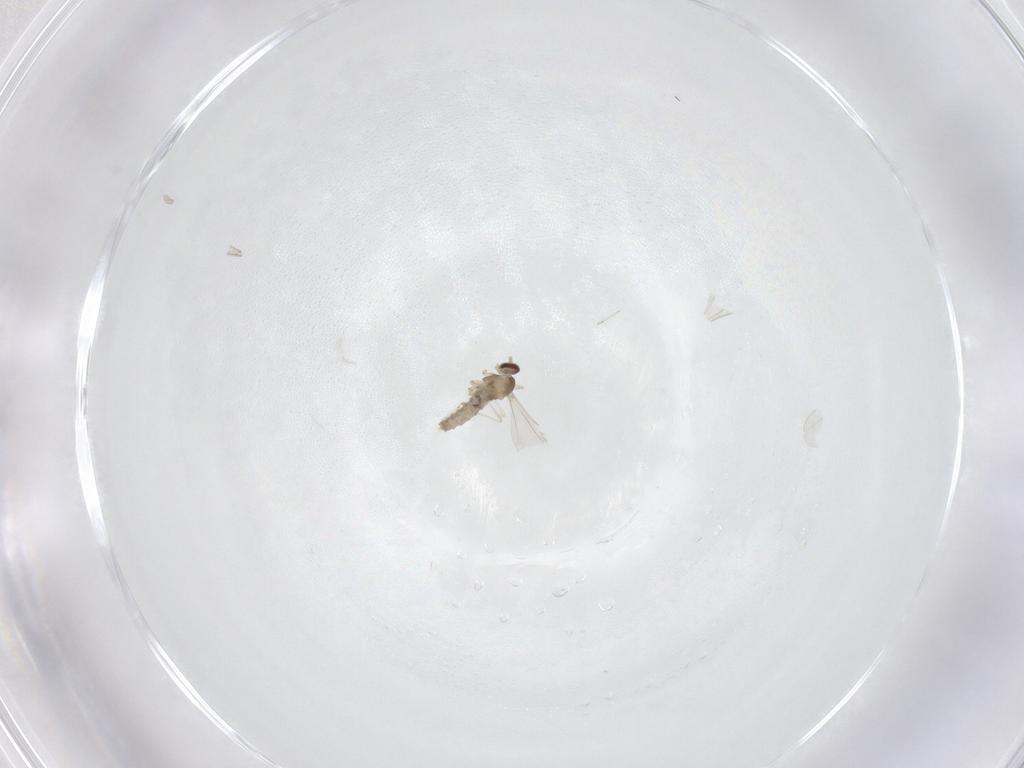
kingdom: Animalia
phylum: Arthropoda
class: Insecta
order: Diptera
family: Cecidomyiidae
